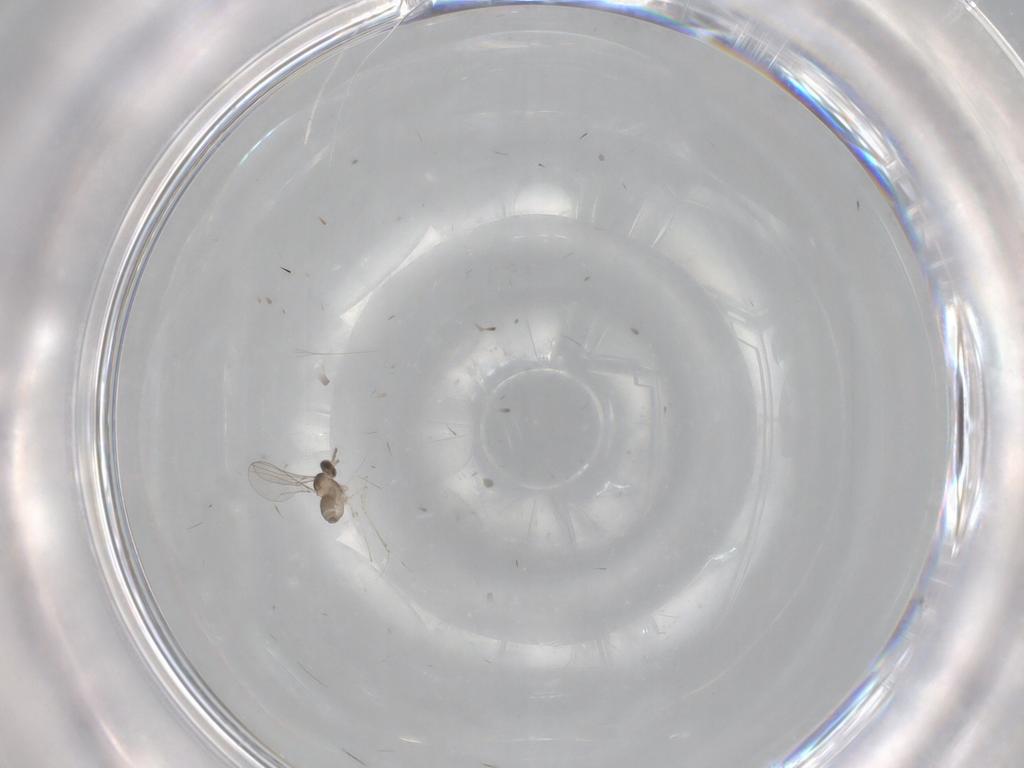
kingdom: Animalia
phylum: Arthropoda
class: Insecta
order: Diptera
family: Cecidomyiidae
